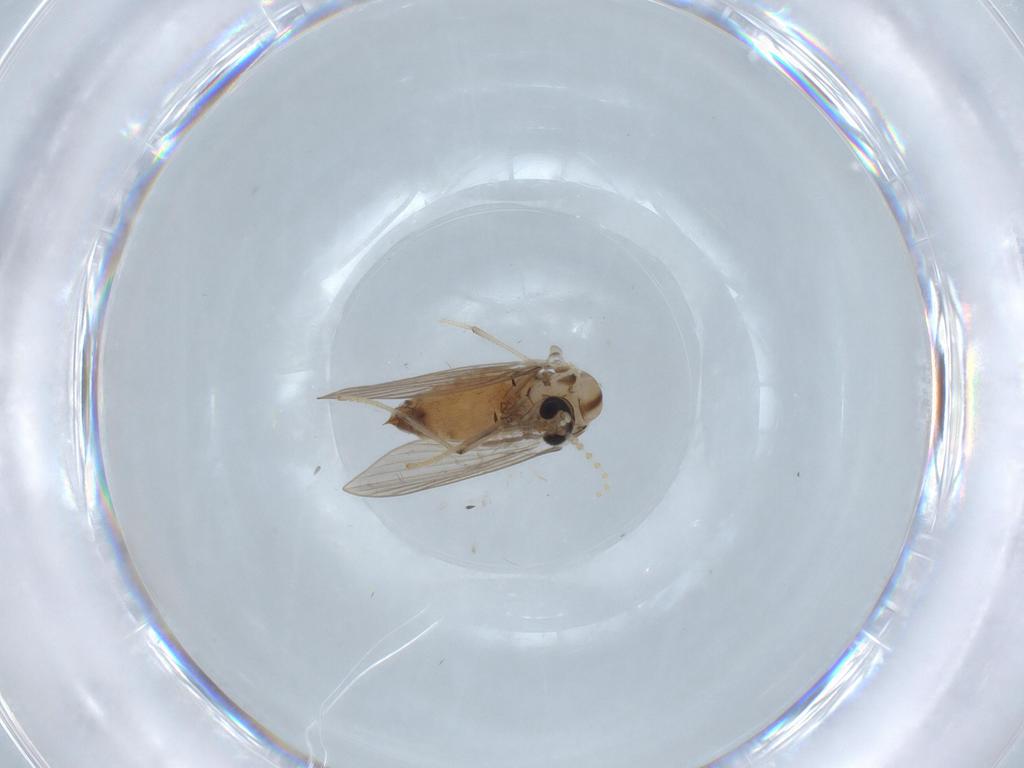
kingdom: Animalia
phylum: Arthropoda
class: Insecta
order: Diptera
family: Psychodidae
